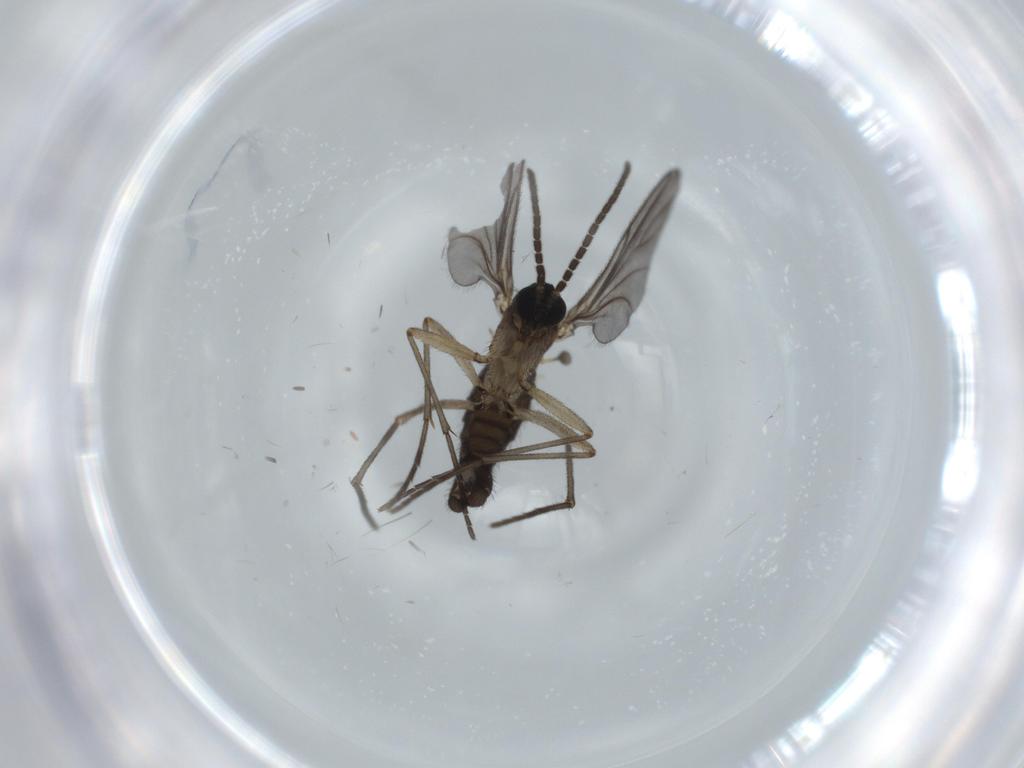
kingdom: Animalia
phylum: Arthropoda
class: Insecta
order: Diptera
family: Sciaridae
